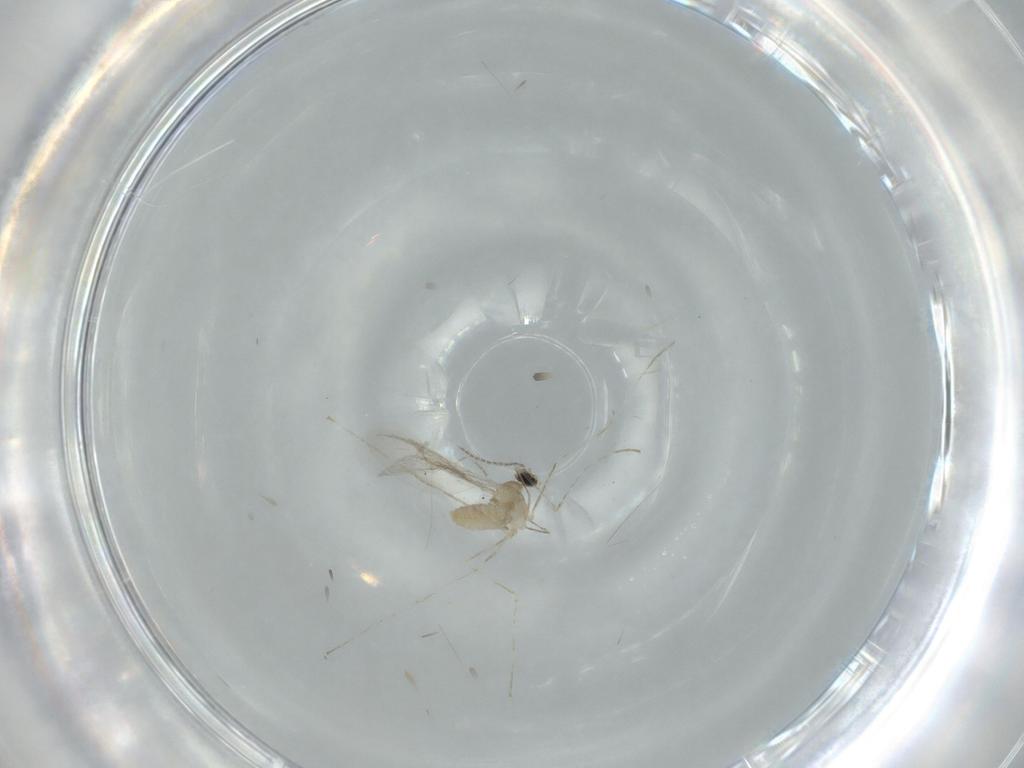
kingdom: Animalia
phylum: Arthropoda
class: Insecta
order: Diptera
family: Cecidomyiidae
